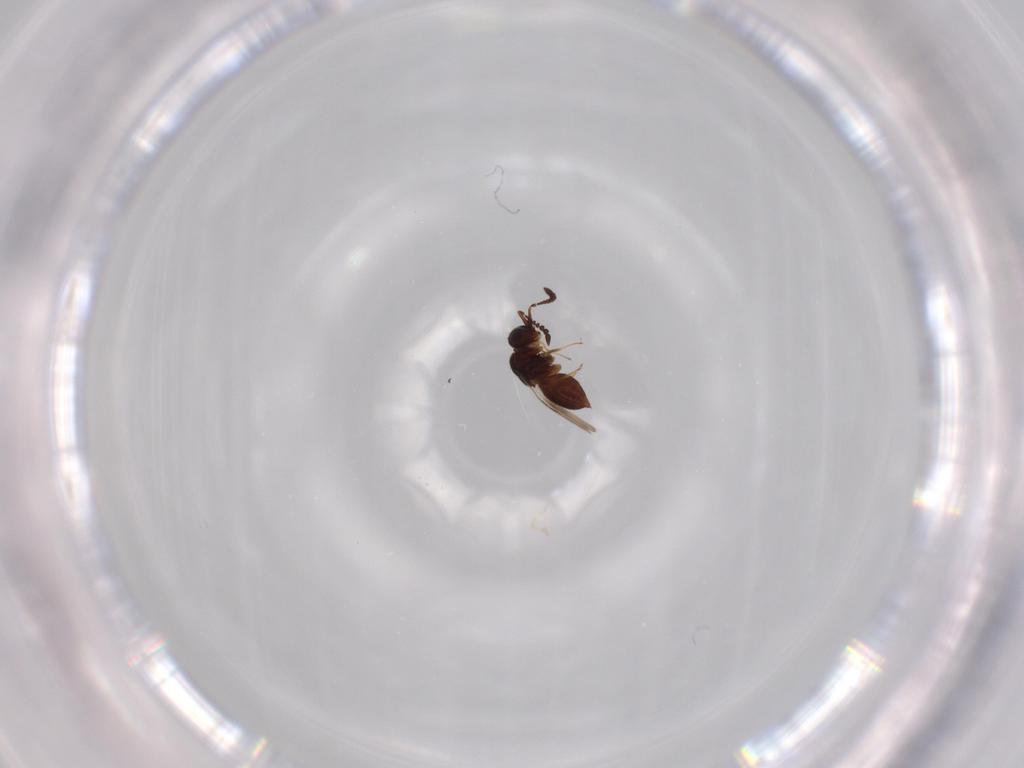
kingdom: Animalia
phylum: Arthropoda
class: Insecta
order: Hymenoptera
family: Ceraphronidae
